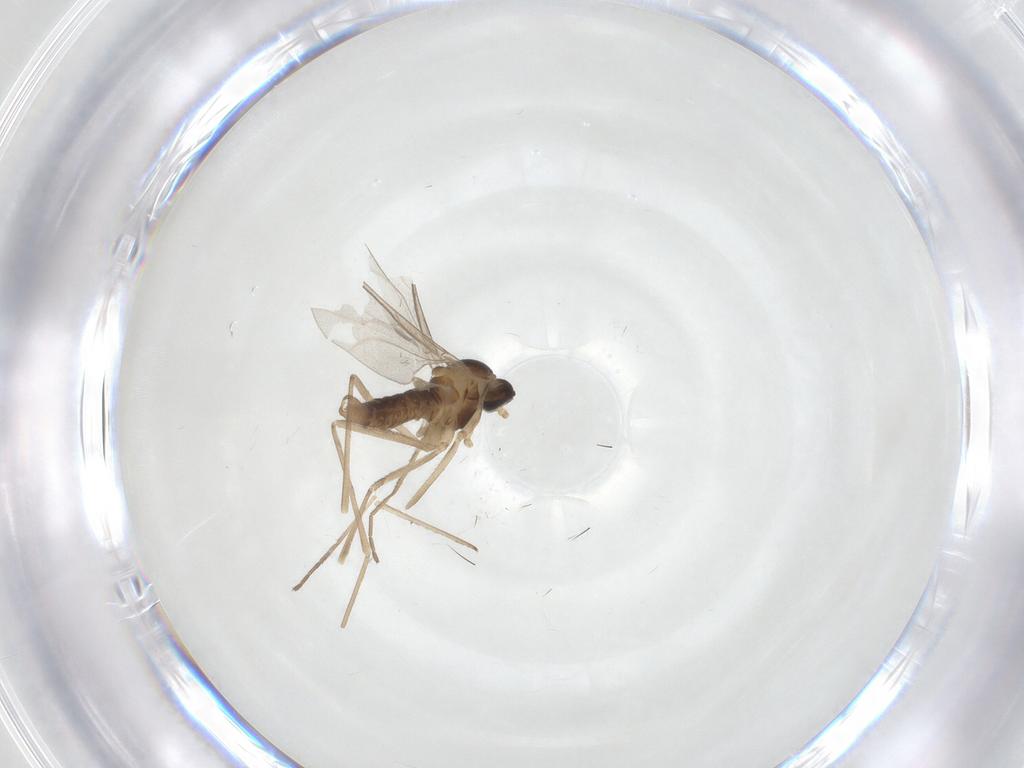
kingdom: Animalia
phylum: Arthropoda
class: Insecta
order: Diptera
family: Cecidomyiidae
